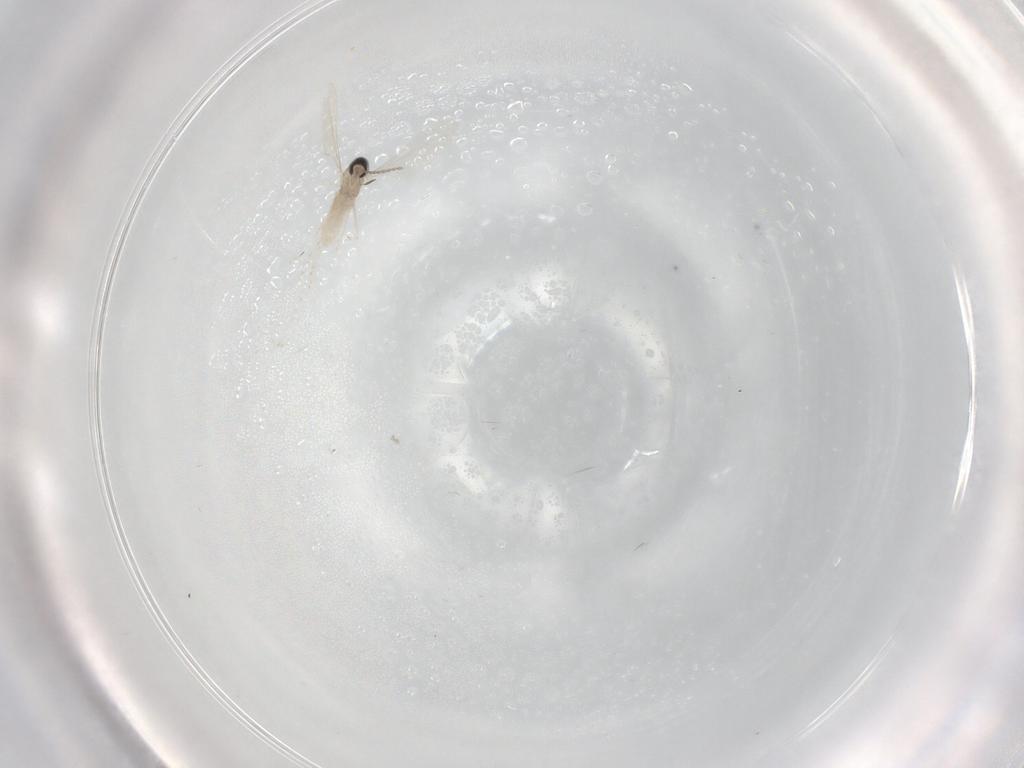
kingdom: Animalia
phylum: Arthropoda
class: Insecta
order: Diptera
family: Cecidomyiidae
